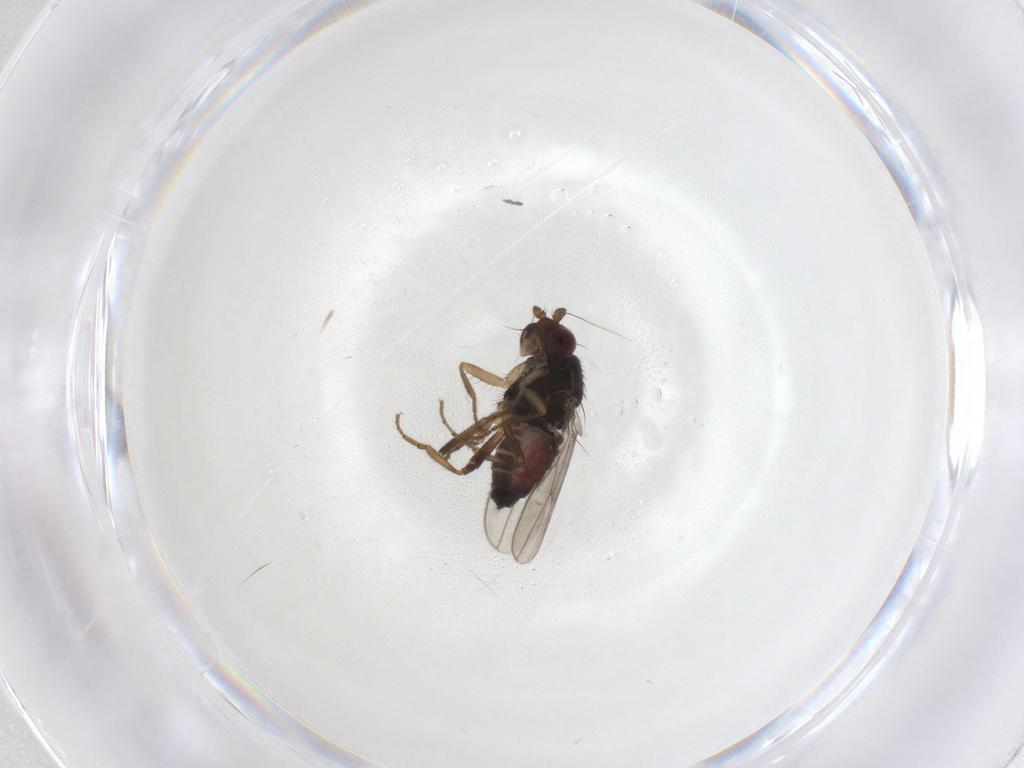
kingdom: Animalia
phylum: Arthropoda
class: Insecta
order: Diptera
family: Sphaeroceridae
